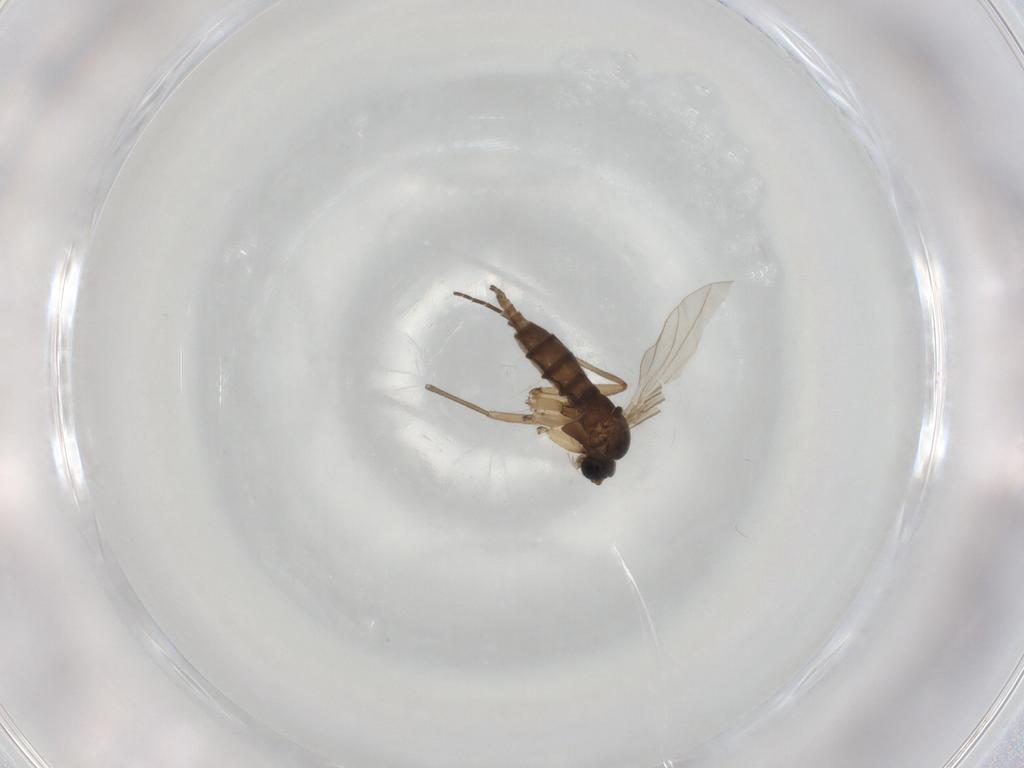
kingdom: Animalia
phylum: Arthropoda
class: Insecta
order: Diptera
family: Sciaridae
